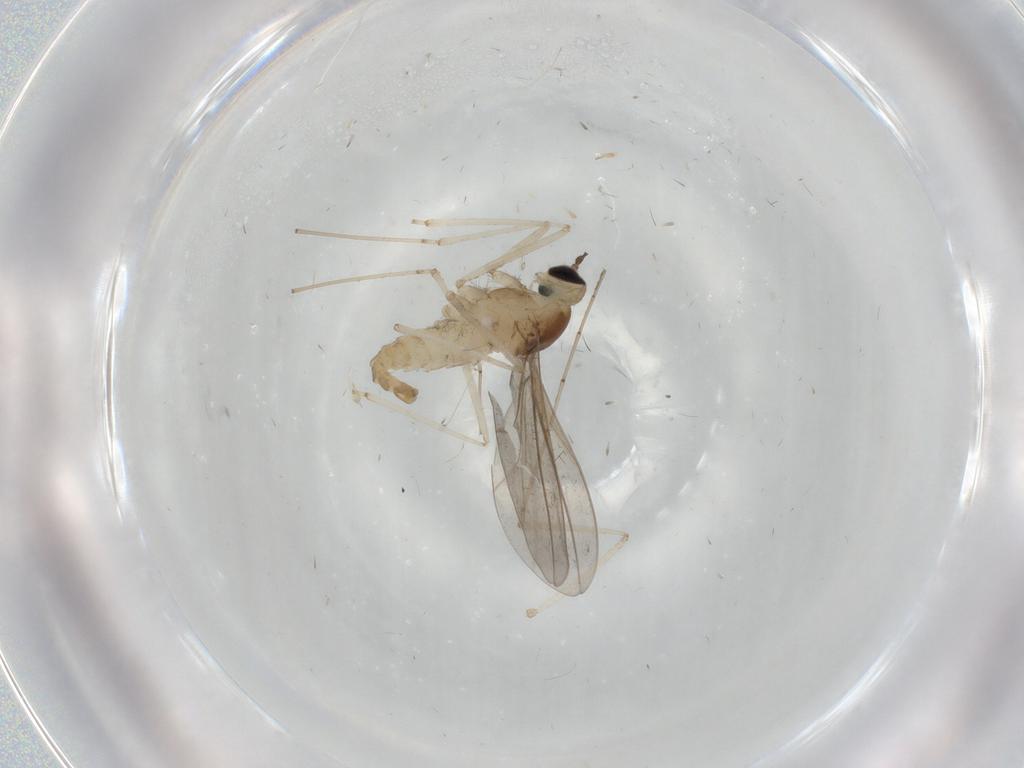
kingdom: Animalia
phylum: Arthropoda
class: Insecta
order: Diptera
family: Cecidomyiidae
